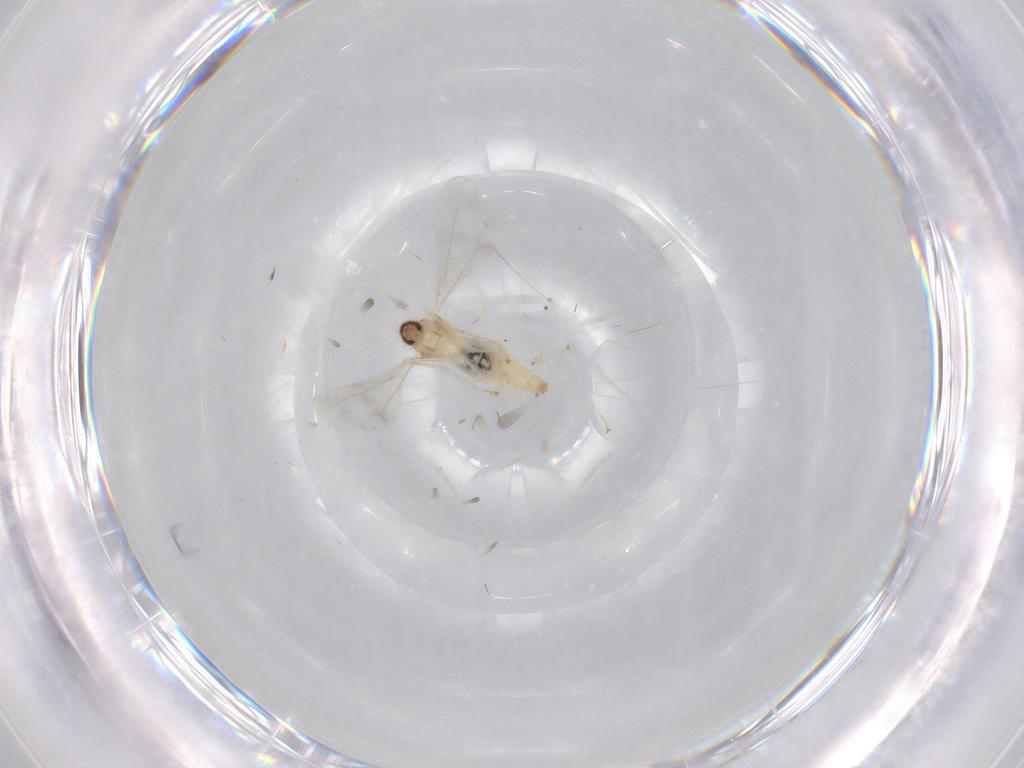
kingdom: Animalia
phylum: Arthropoda
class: Insecta
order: Diptera
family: Cecidomyiidae
